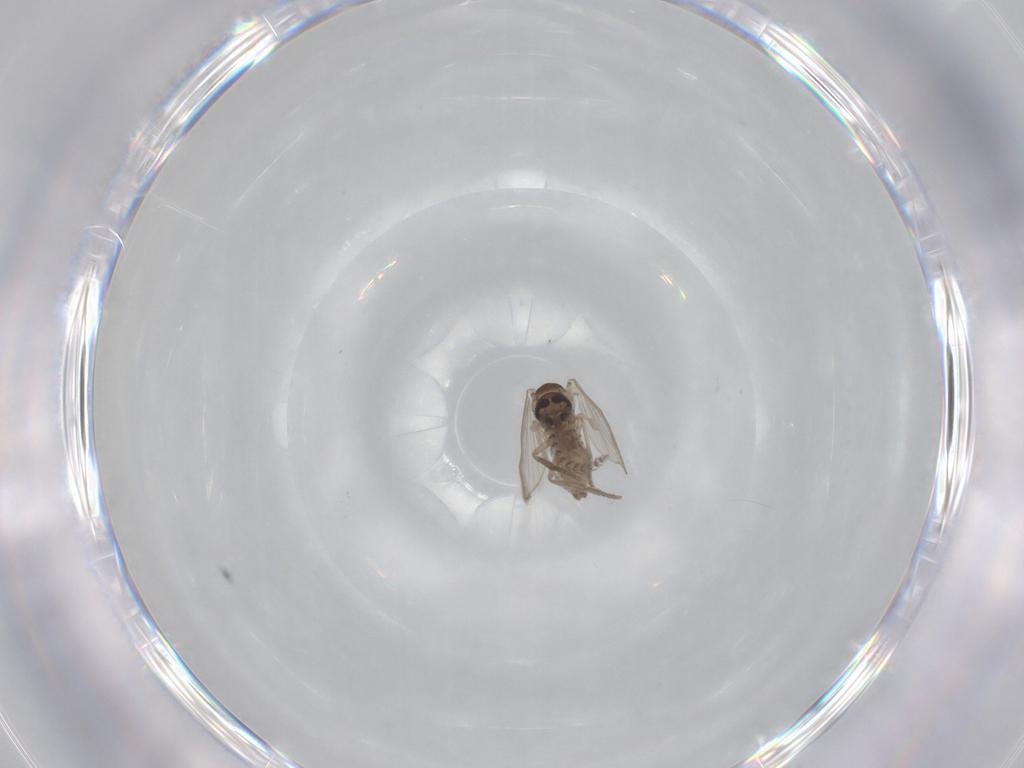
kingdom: Animalia
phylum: Arthropoda
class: Insecta
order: Diptera
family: Psychodidae
